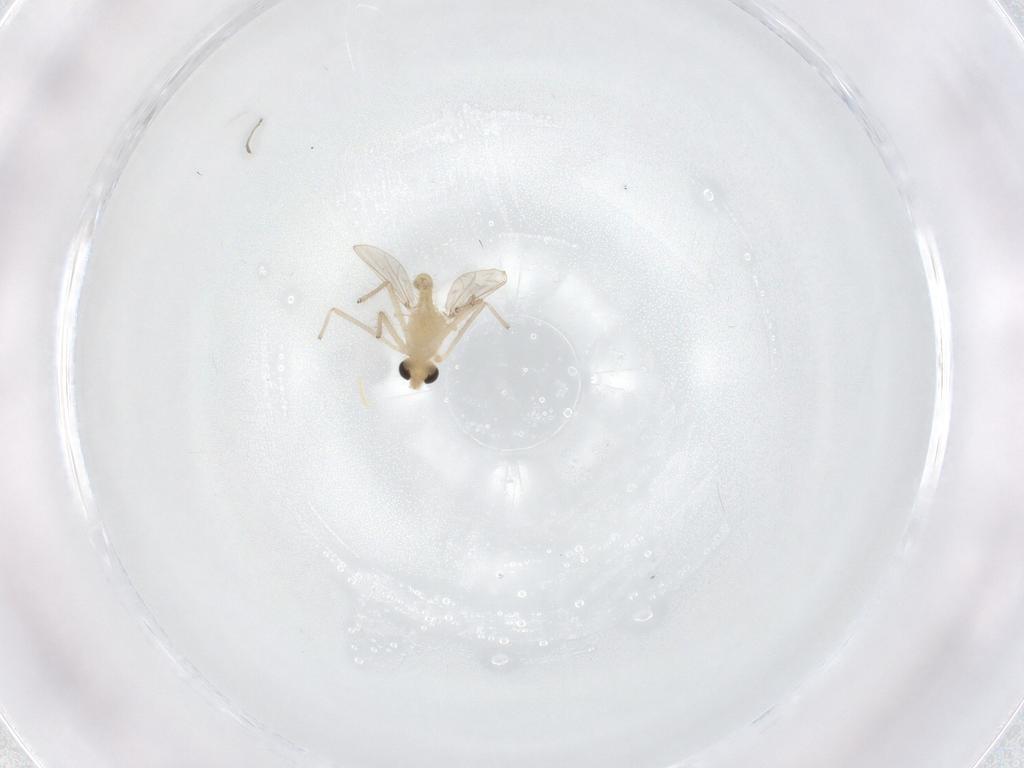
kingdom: Animalia
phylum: Arthropoda
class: Insecta
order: Diptera
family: Chironomidae
